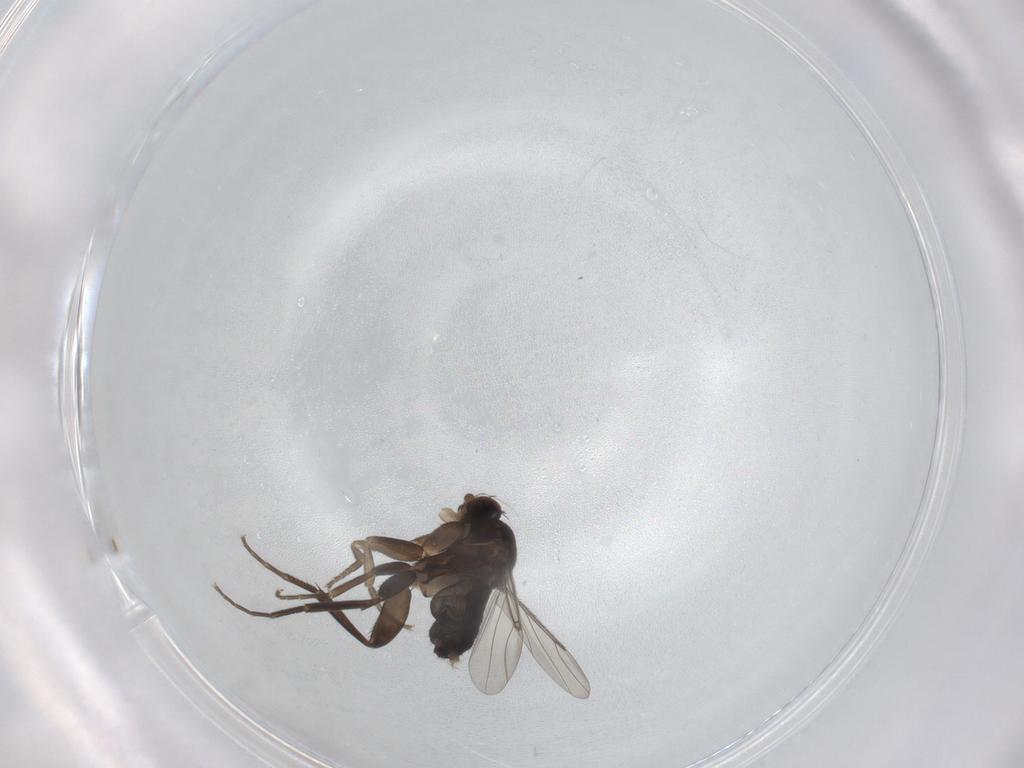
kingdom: Animalia
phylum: Arthropoda
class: Insecta
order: Diptera
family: Phoridae
